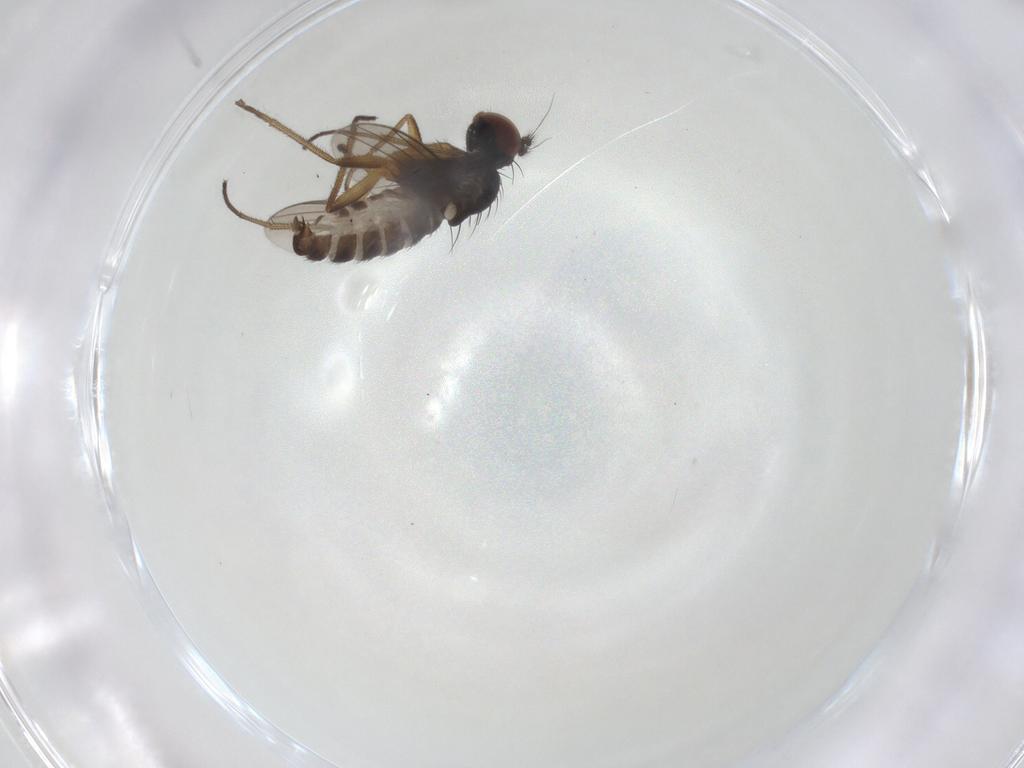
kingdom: Animalia
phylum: Arthropoda
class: Insecta
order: Diptera
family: Dolichopodidae
